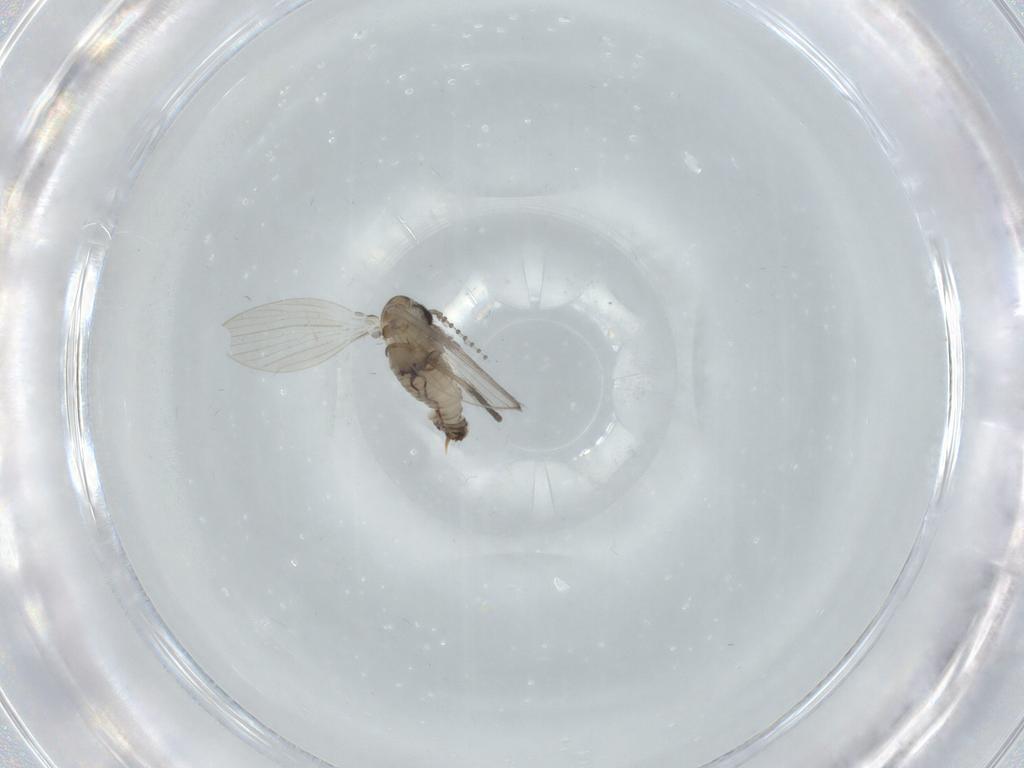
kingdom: Animalia
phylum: Arthropoda
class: Insecta
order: Diptera
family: Psychodidae
